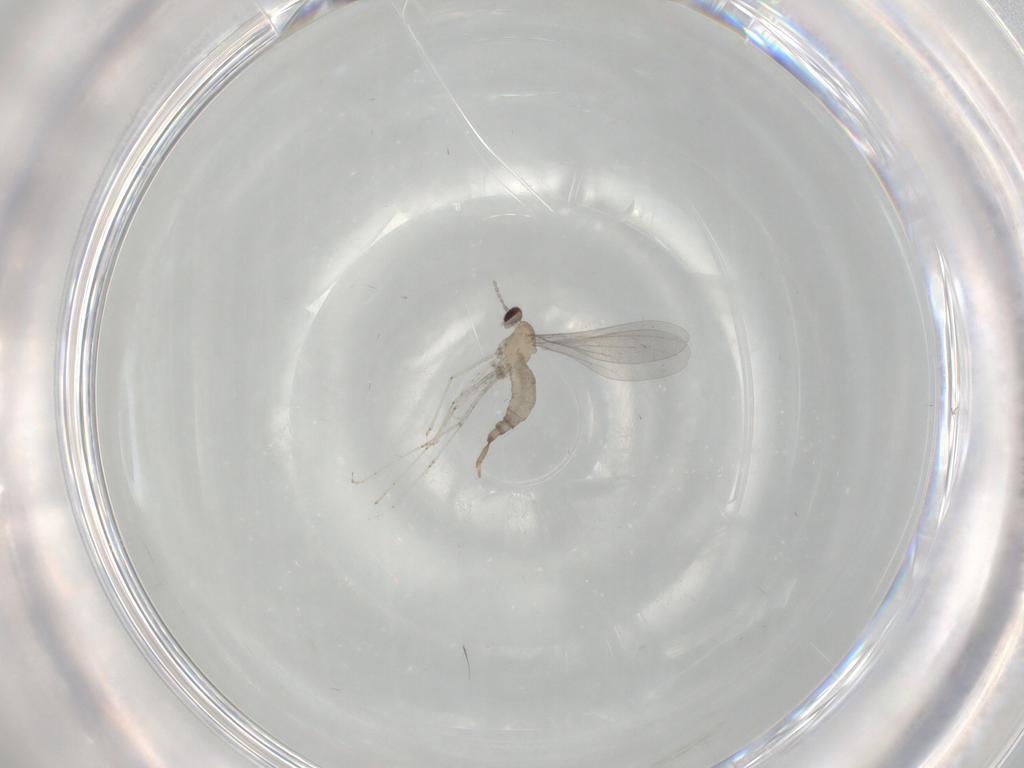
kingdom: Animalia
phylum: Arthropoda
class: Insecta
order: Diptera
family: Cecidomyiidae
